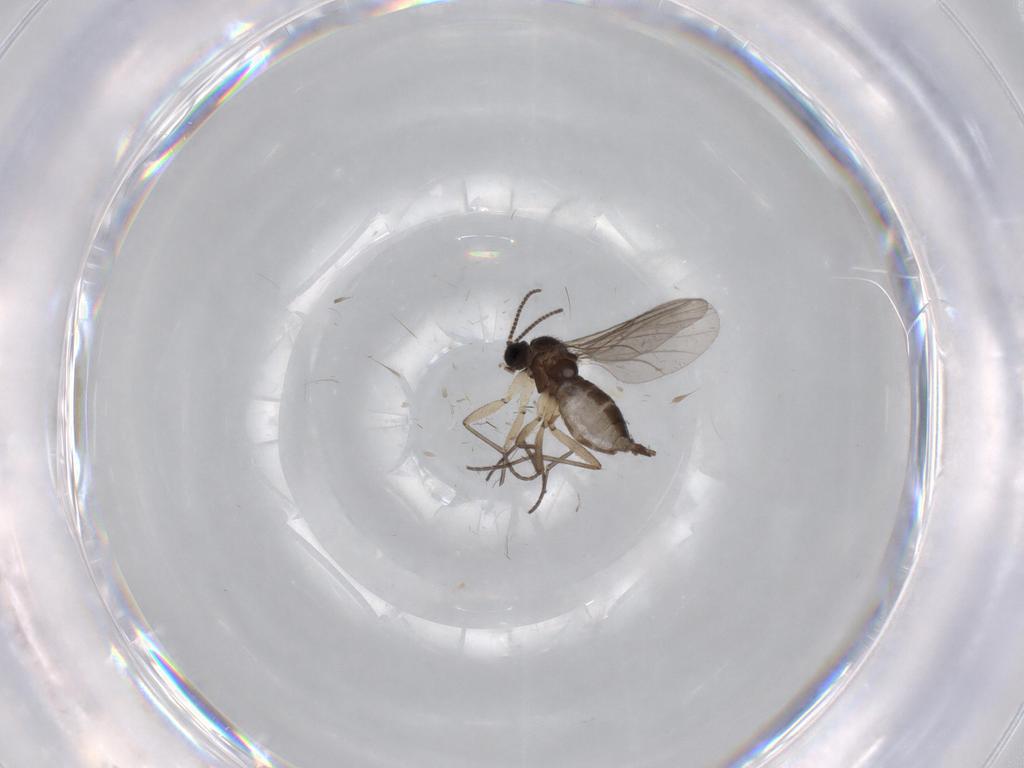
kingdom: Animalia
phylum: Arthropoda
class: Insecta
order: Diptera
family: Sciaridae
